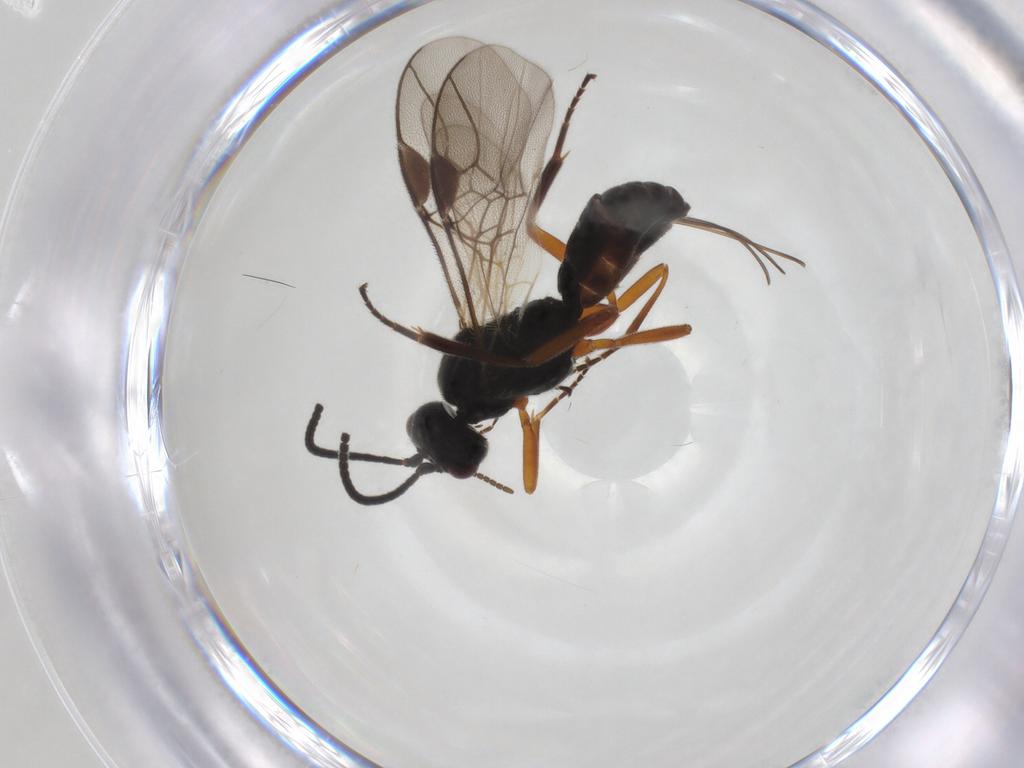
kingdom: Animalia
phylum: Arthropoda
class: Insecta
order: Hymenoptera
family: Braconidae
